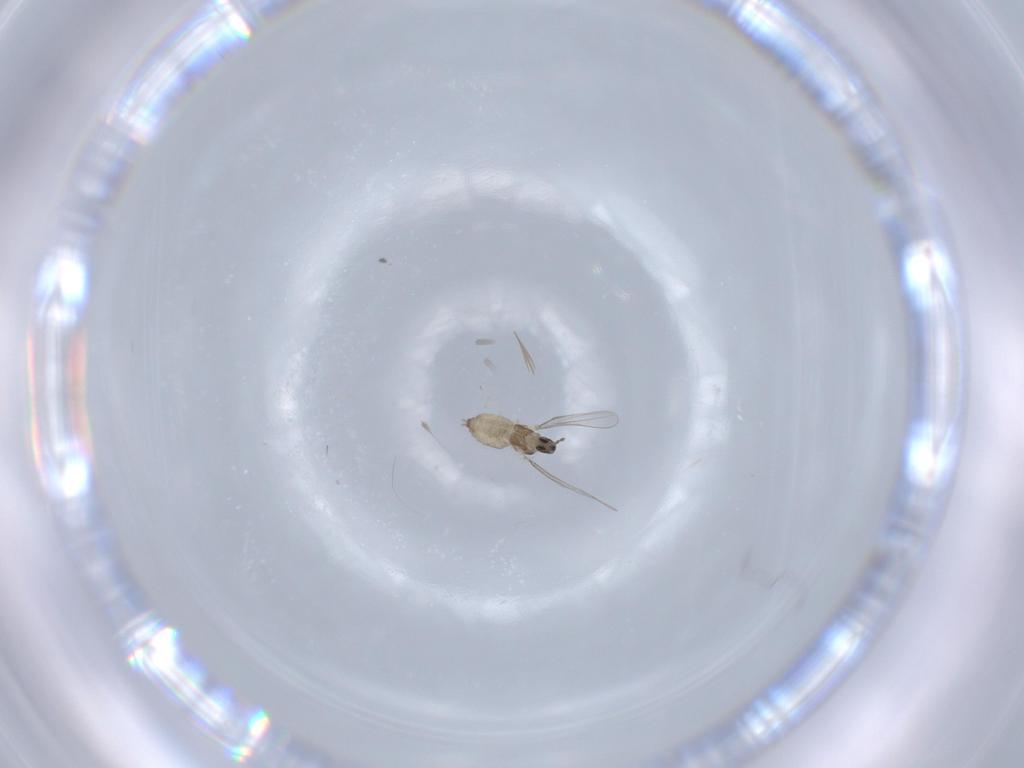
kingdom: Animalia
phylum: Arthropoda
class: Insecta
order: Diptera
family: Cecidomyiidae
